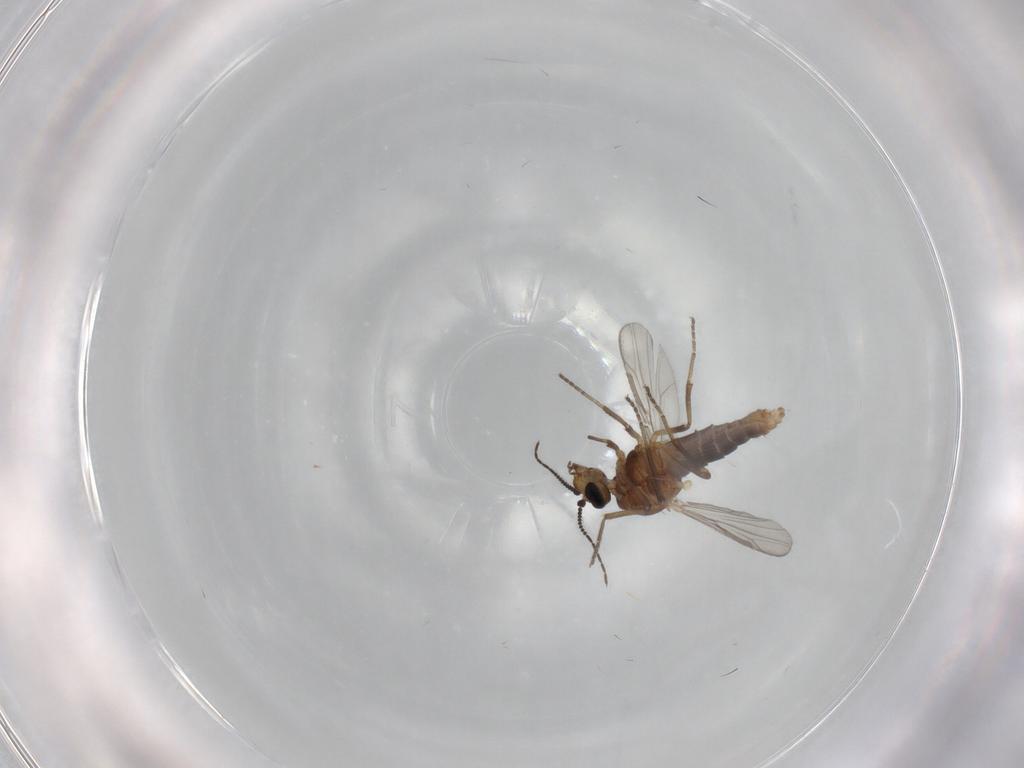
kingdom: Animalia
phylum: Arthropoda
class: Insecta
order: Diptera
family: Ceratopogonidae
